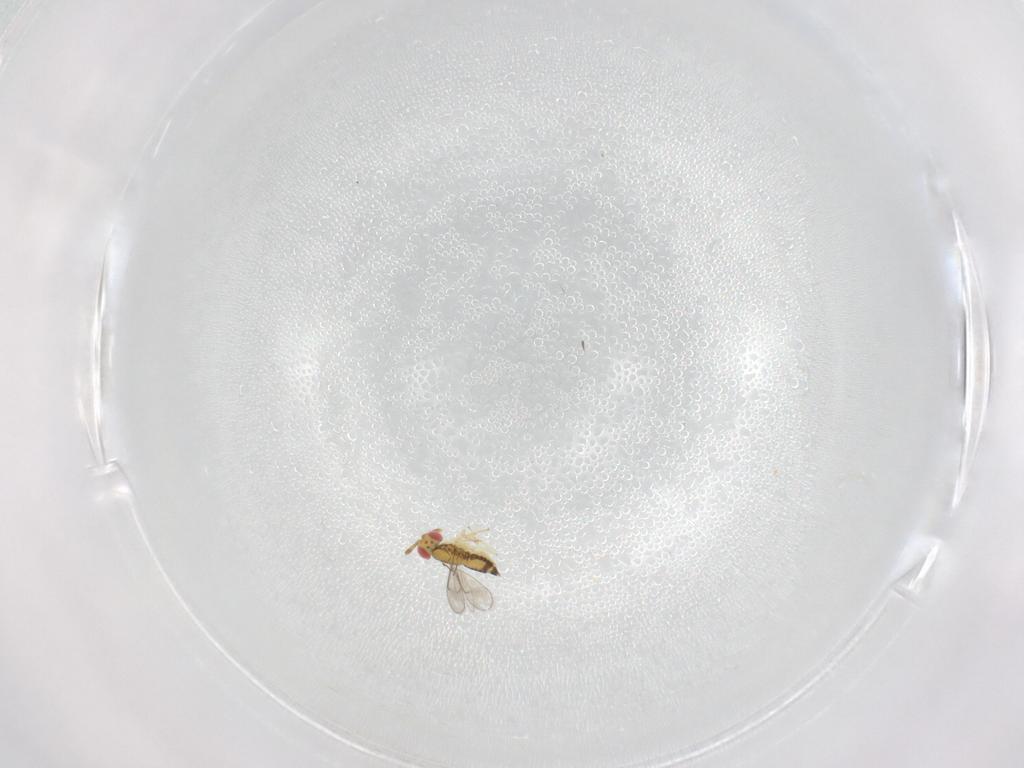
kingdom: Animalia
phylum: Arthropoda
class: Insecta
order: Hymenoptera
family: Aphelinidae
